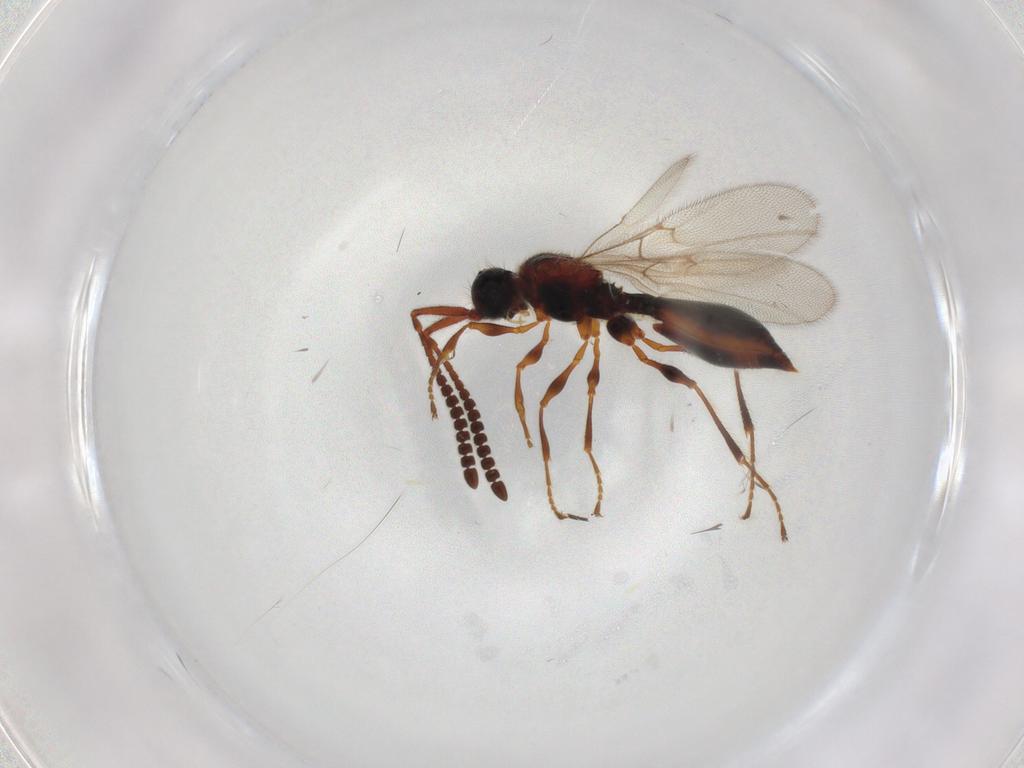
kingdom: Animalia
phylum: Arthropoda
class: Insecta
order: Hymenoptera
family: Diapriidae
